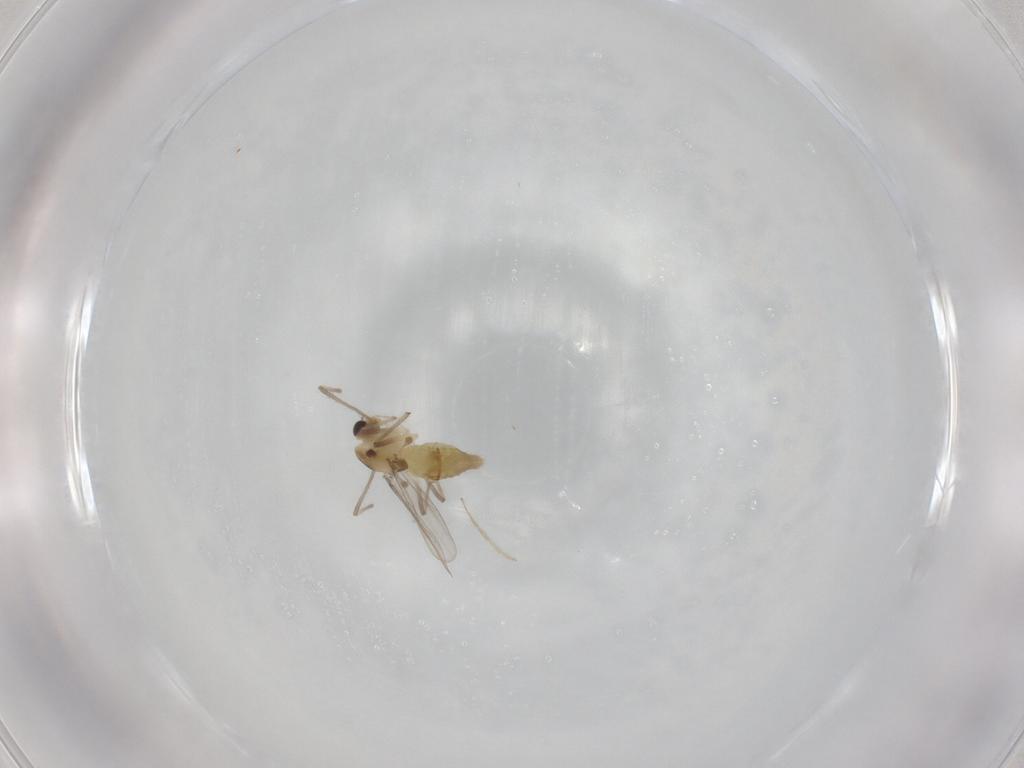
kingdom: Animalia
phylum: Arthropoda
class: Insecta
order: Diptera
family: Chironomidae
